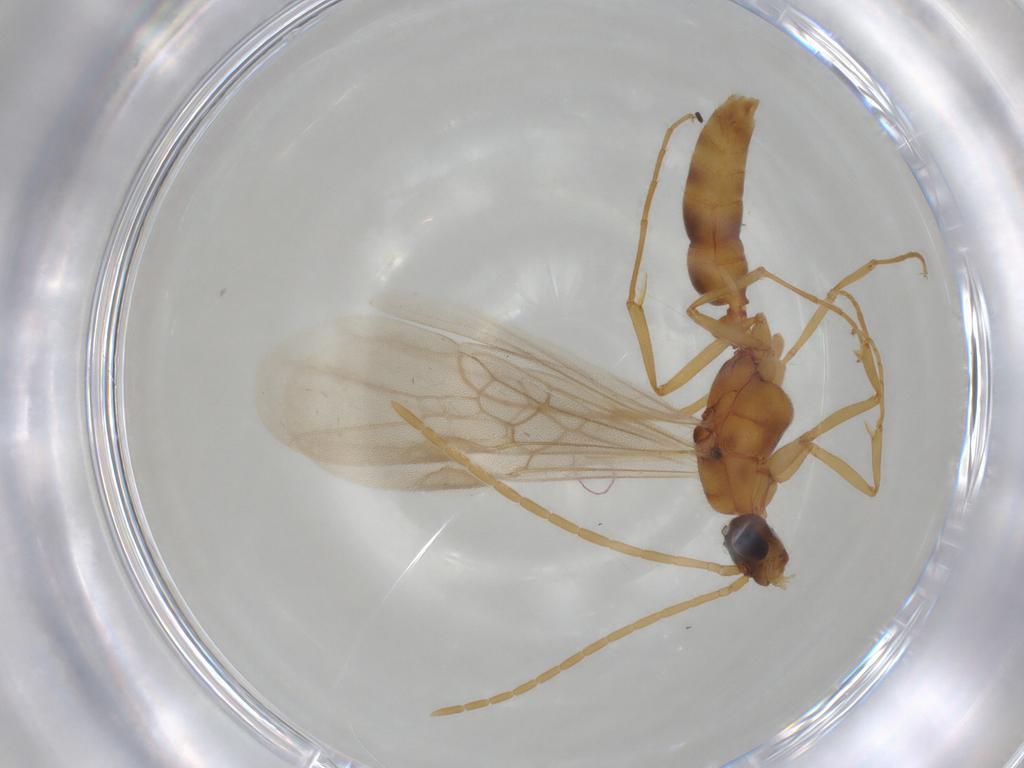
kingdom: Animalia
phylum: Arthropoda
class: Insecta
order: Hymenoptera
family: Formicidae
